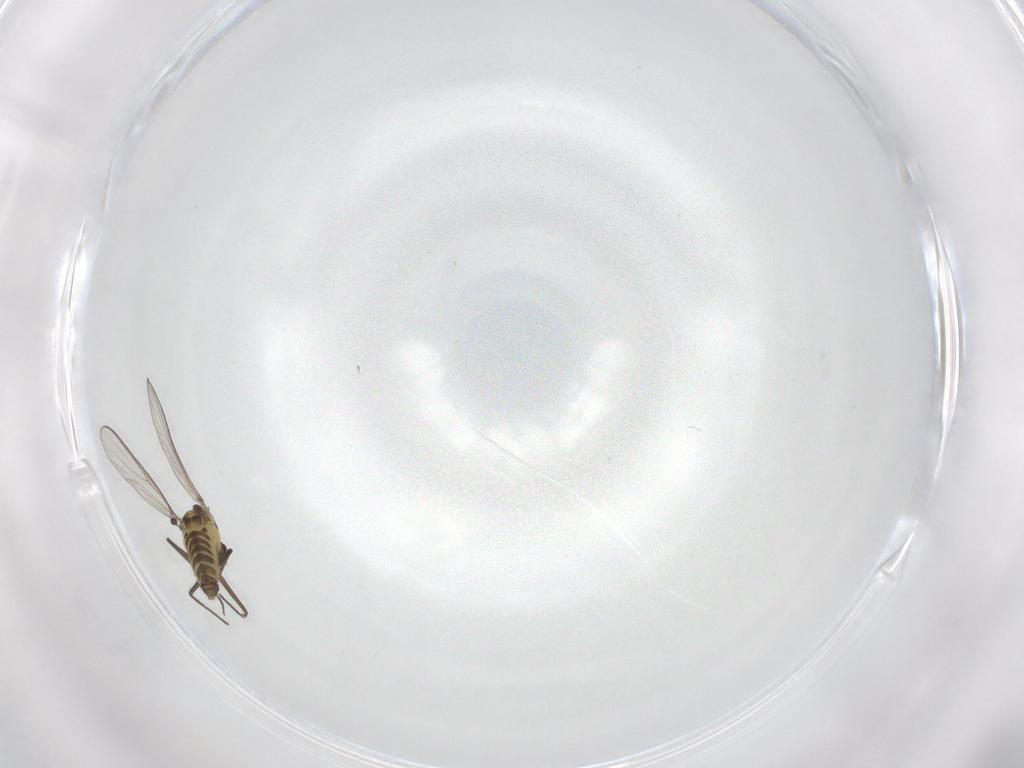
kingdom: Animalia
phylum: Arthropoda
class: Insecta
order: Diptera
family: Chironomidae
